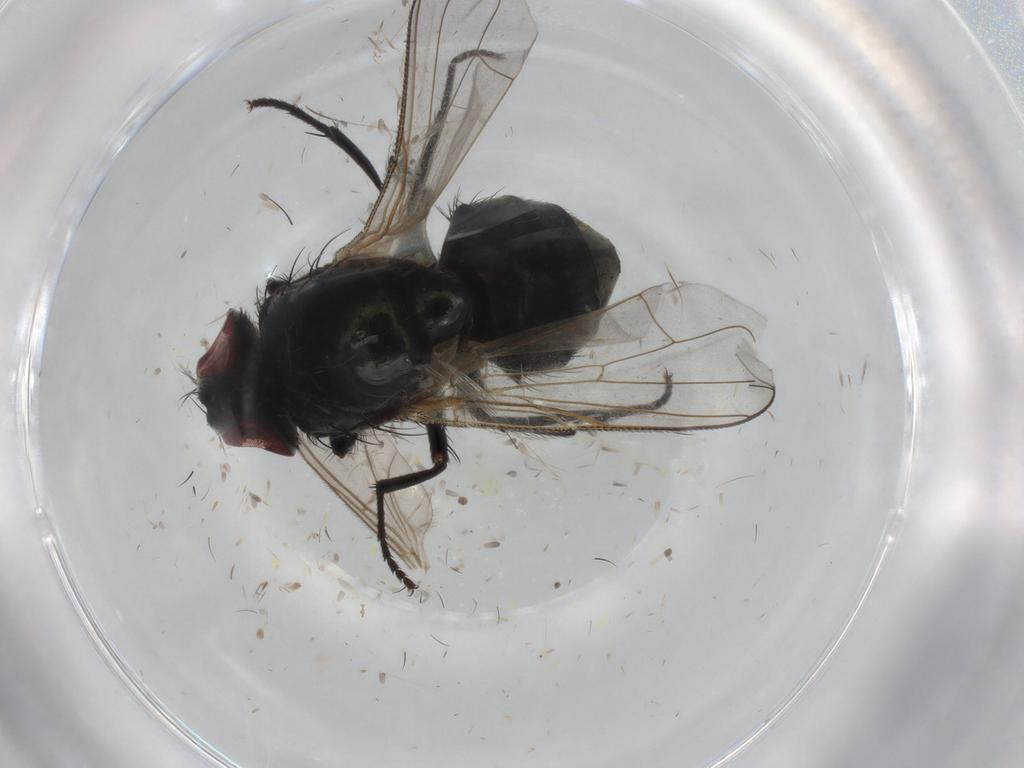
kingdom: Animalia
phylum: Arthropoda
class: Insecta
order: Diptera
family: Muscidae
